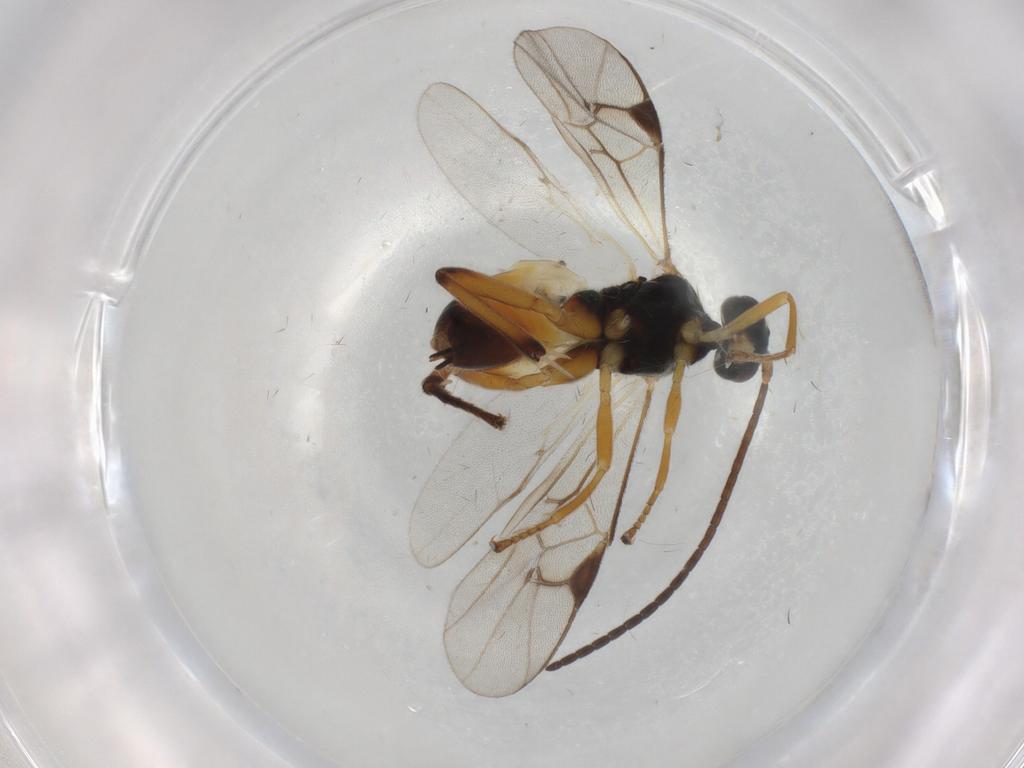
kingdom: Animalia
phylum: Arthropoda
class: Insecta
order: Hymenoptera
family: Braconidae
